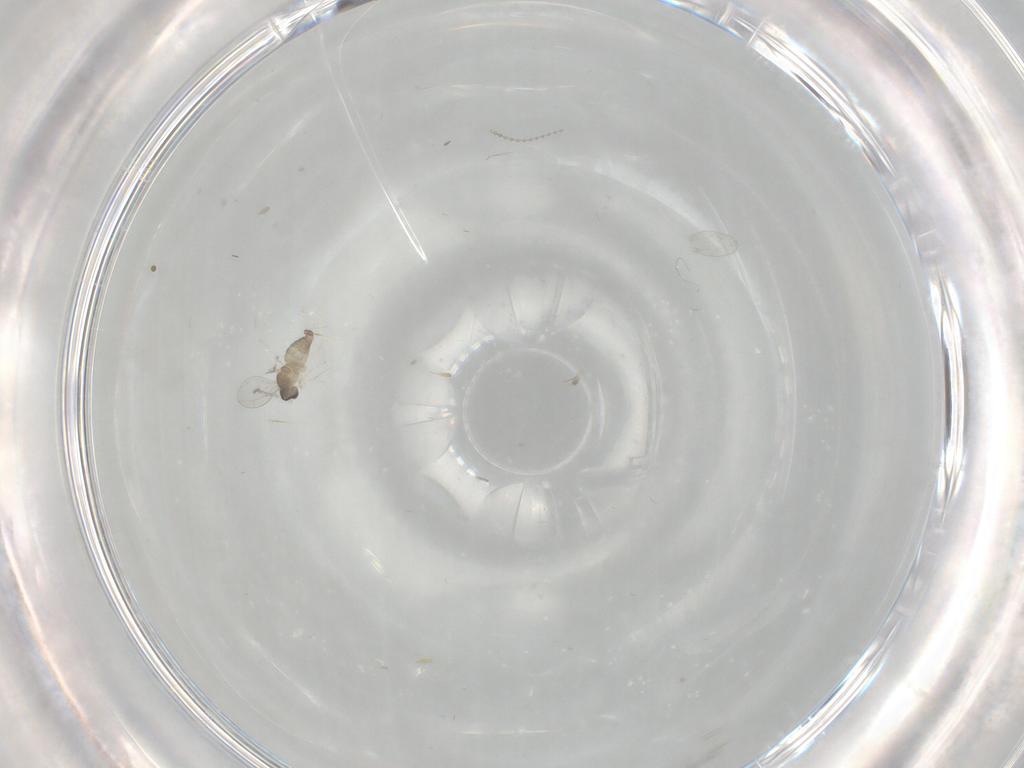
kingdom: Animalia
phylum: Arthropoda
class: Insecta
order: Diptera
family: Cecidomyiidae
